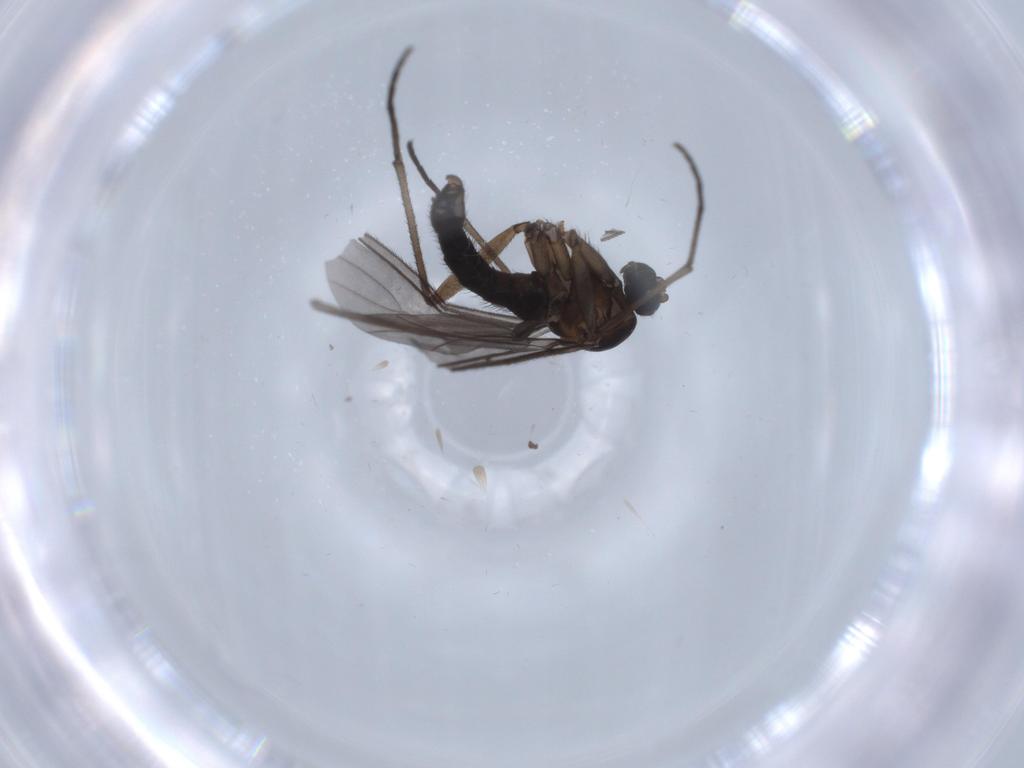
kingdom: Animalia
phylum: Arthropoda
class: Insecta
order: Diptera
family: Sciaridae
